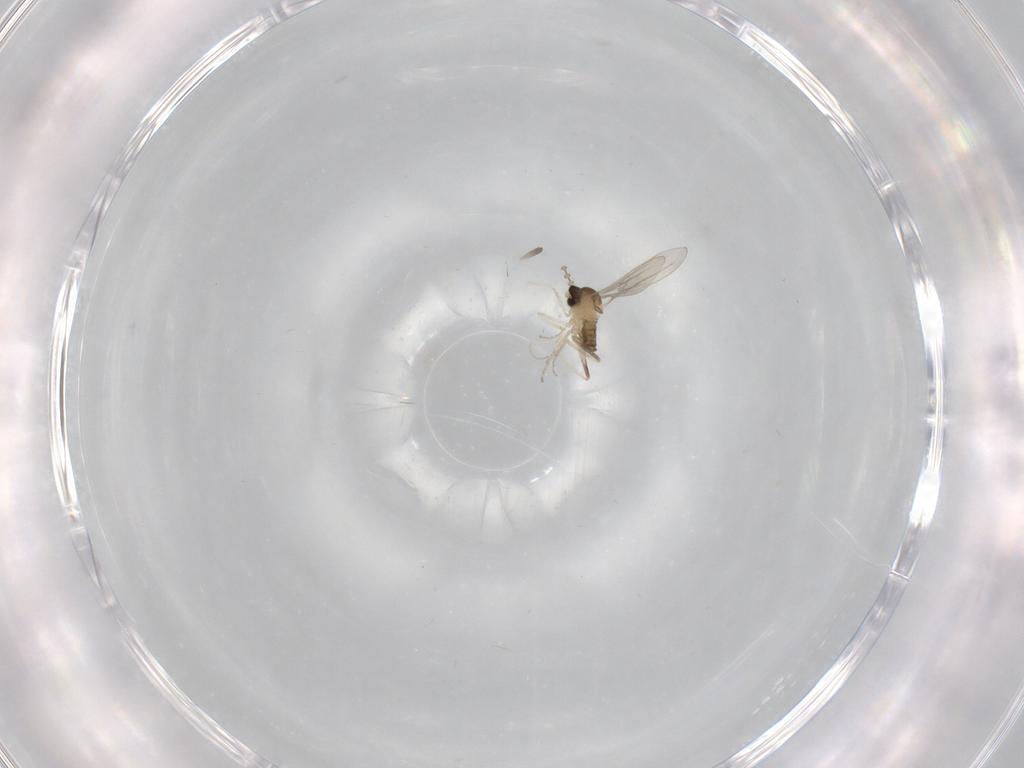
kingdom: Animalia
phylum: Arthropoda
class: Insecta
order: Diptera
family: Cecidomyiidae
